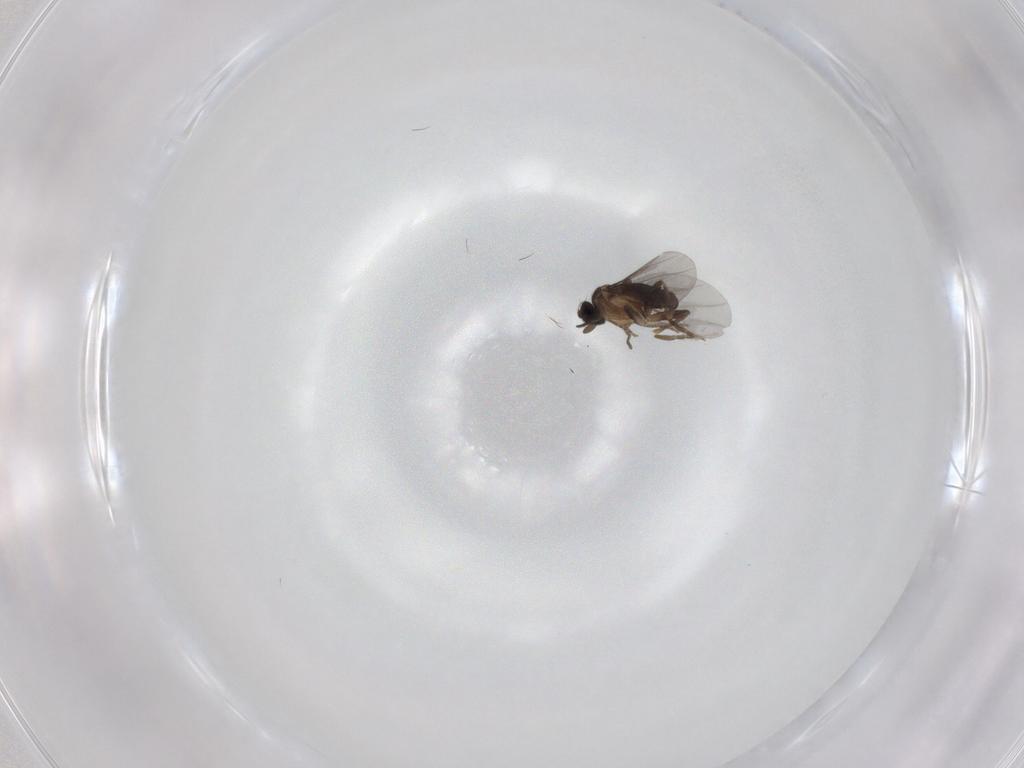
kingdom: Animalia
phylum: Arthropoda
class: Insecta
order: Diptera
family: Cecidomyiidae
